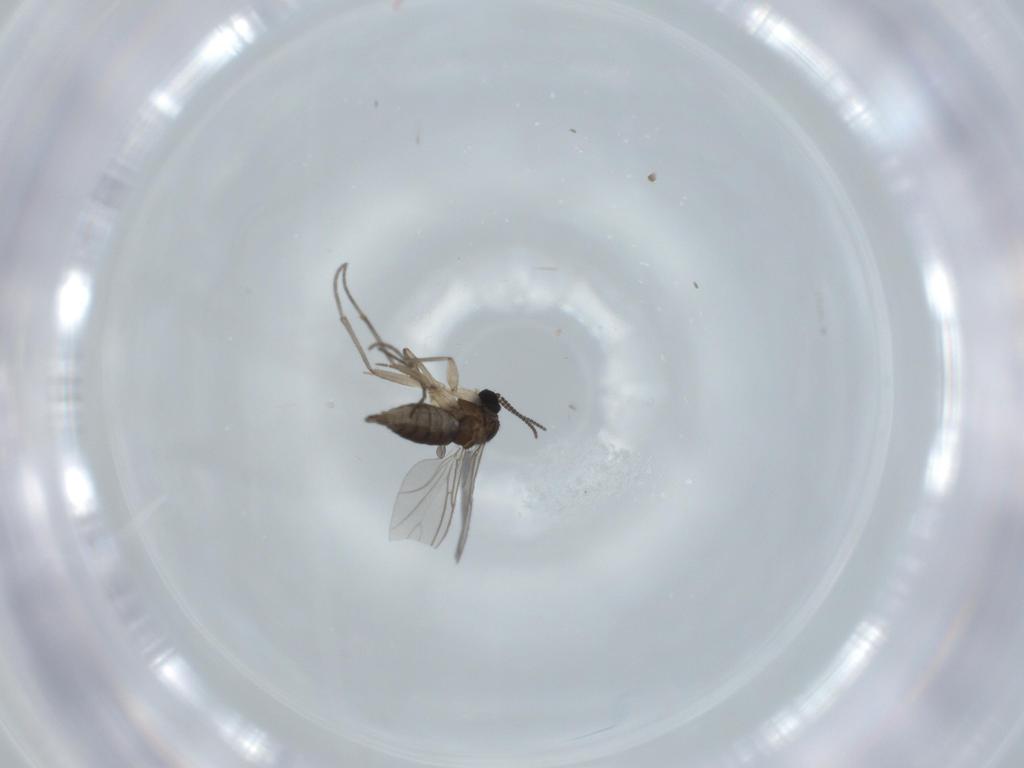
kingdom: Animalia
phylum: Arthropoda
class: Insecta
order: Diptera
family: Sciaridae
